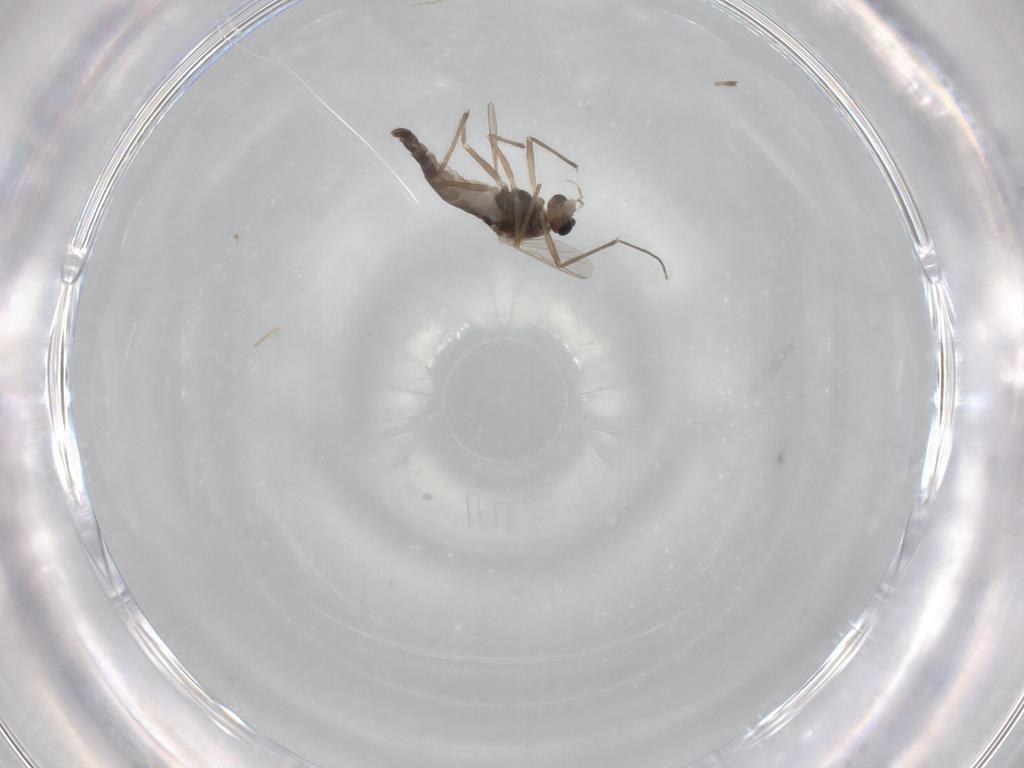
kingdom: Animalia
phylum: Arthropoda
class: Insecta
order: Diptera
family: Chironomidae
